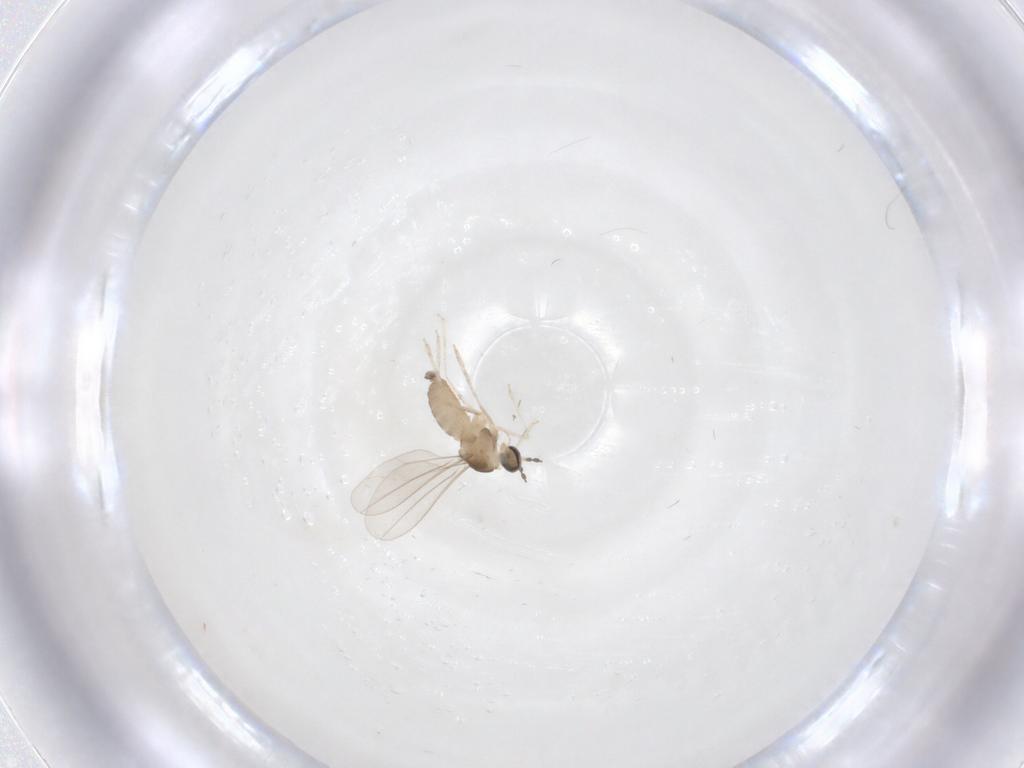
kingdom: Animalia
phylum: Arthropoda
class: Insecta
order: Diptera
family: Cecidomyiidae
